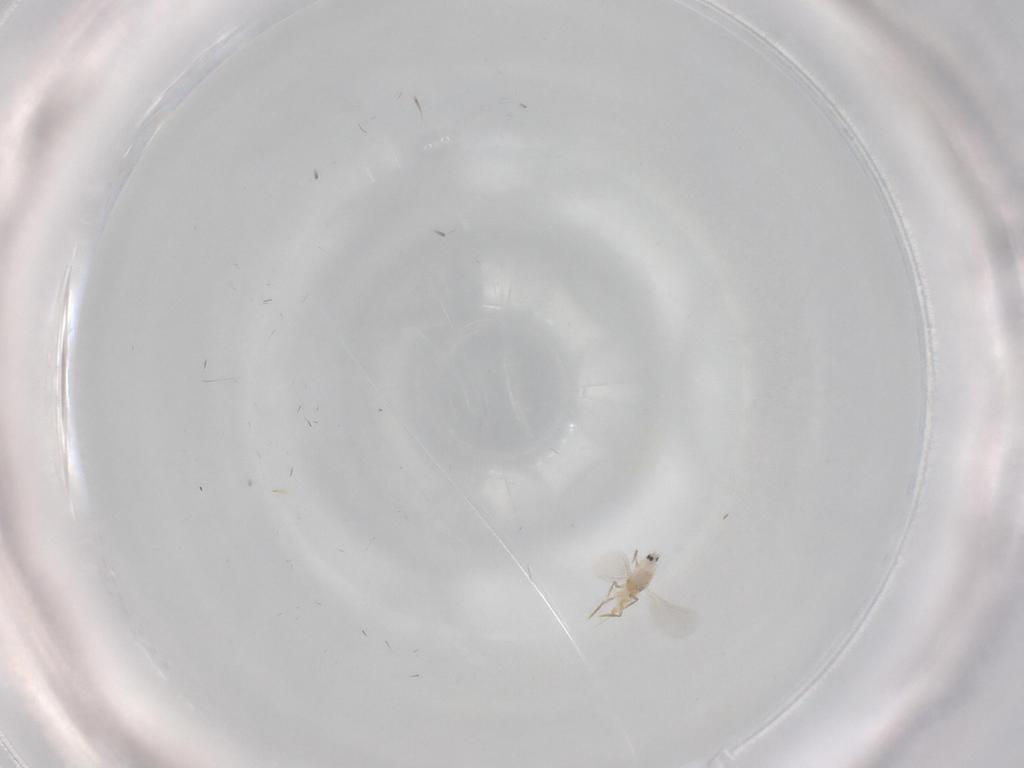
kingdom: Animalia
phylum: Arthropoda
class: Insecta
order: Hemiptera
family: Diaspididae
